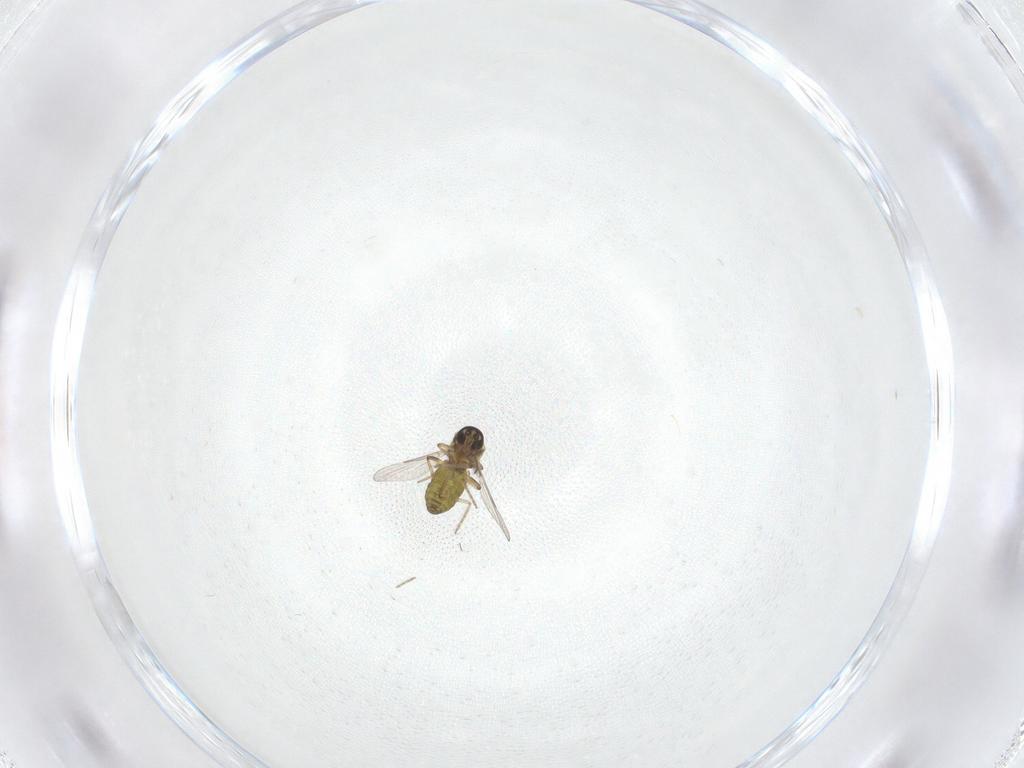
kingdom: Animalia
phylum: Arthropoda
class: Insecta
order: Diptera
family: Ceratopogonidae
